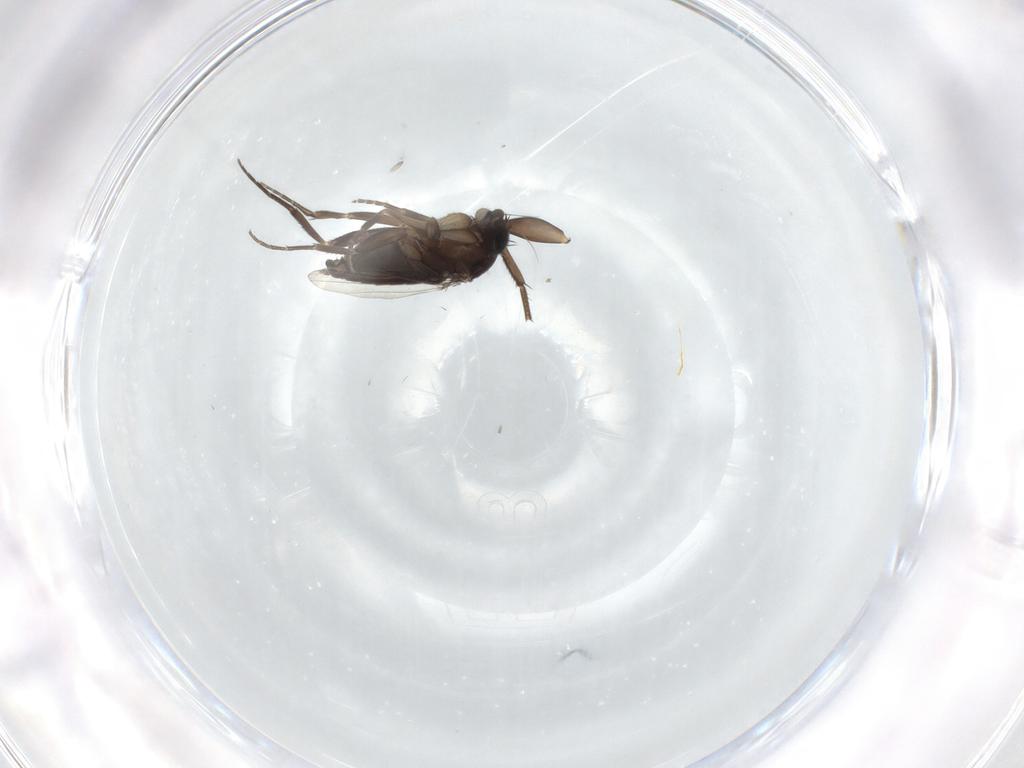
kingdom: Animalia
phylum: Arthropoda
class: Insecta
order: Diptera
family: Phoridae
